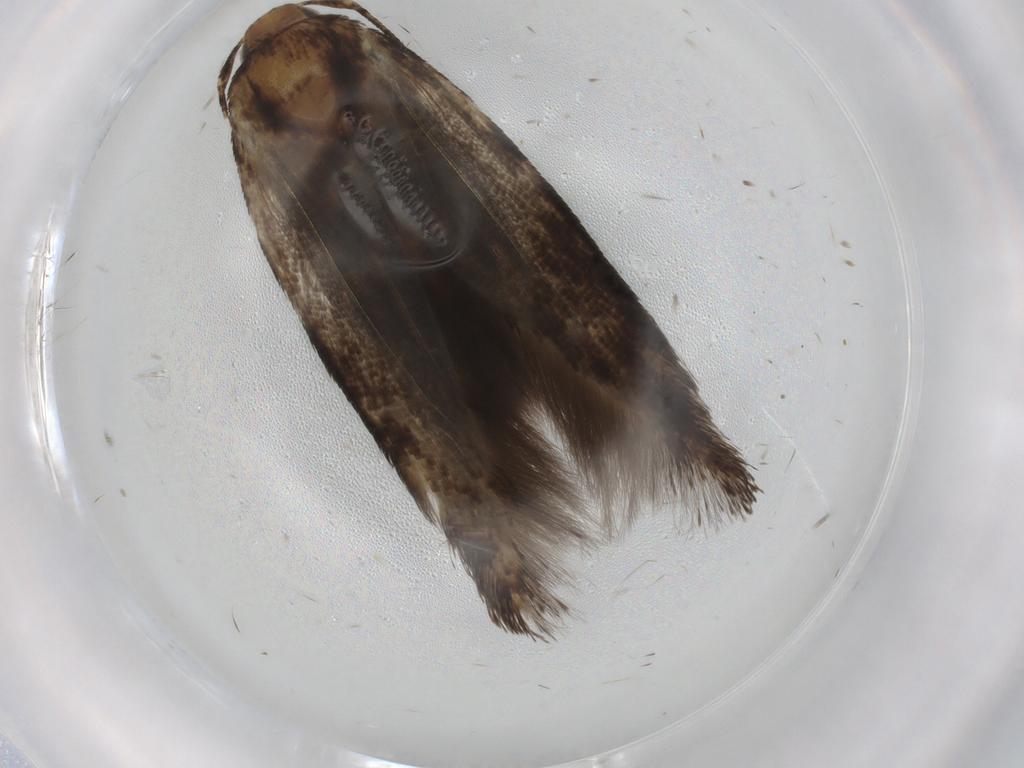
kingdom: Animalia
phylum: Arthropoda
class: Insecta
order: Lepidoptera
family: Cosmopterigidae
